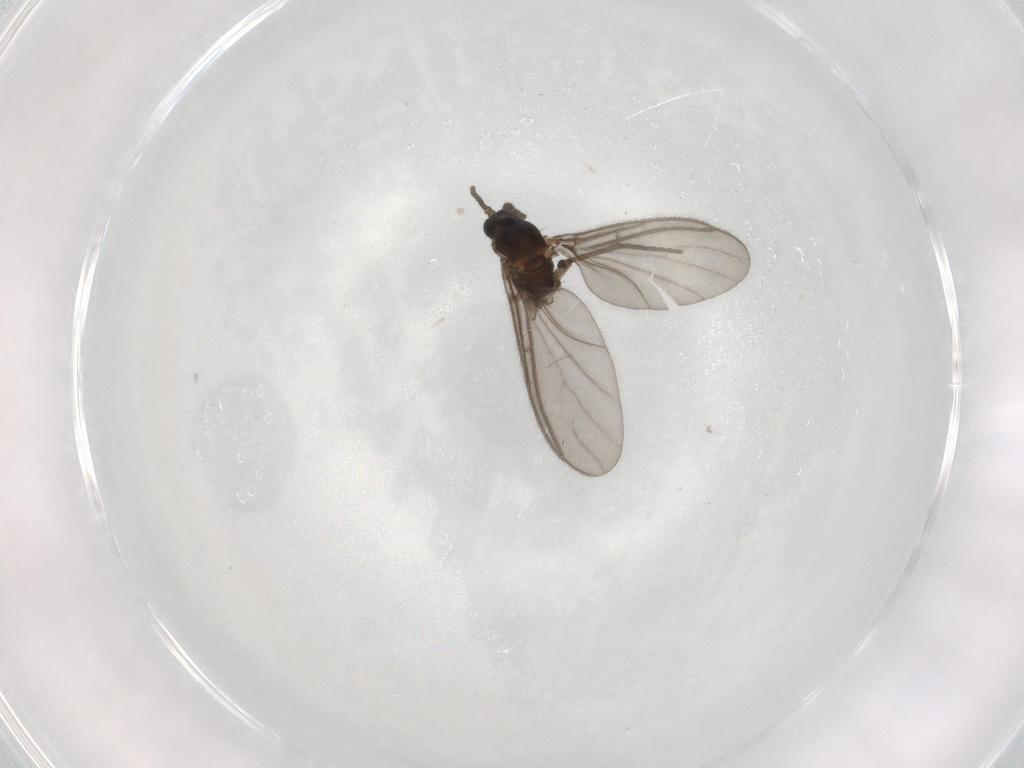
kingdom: Animalia
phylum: Arthropoda
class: Insecta
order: Diptera
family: Sciaridae
